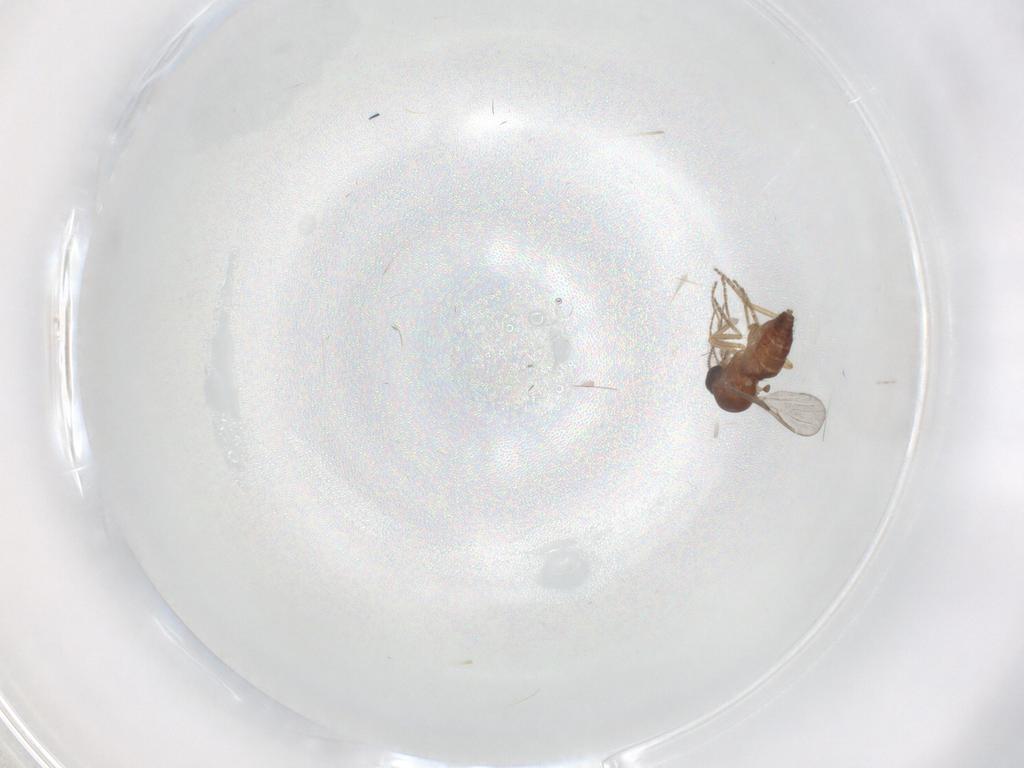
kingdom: Animalia
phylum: Arthropoda
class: Insecta
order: Diptera
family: Ceratopogonidae
